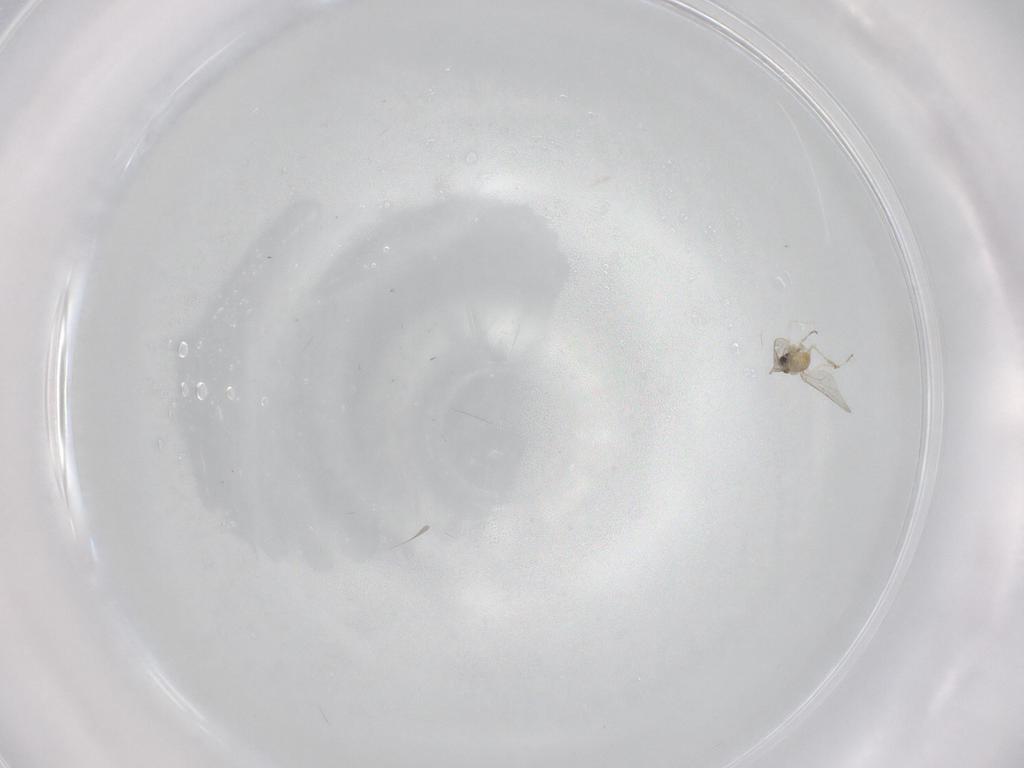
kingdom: Animalia
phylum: Arthropoda
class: Insecta
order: Diptera
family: Cecidomyiidae
